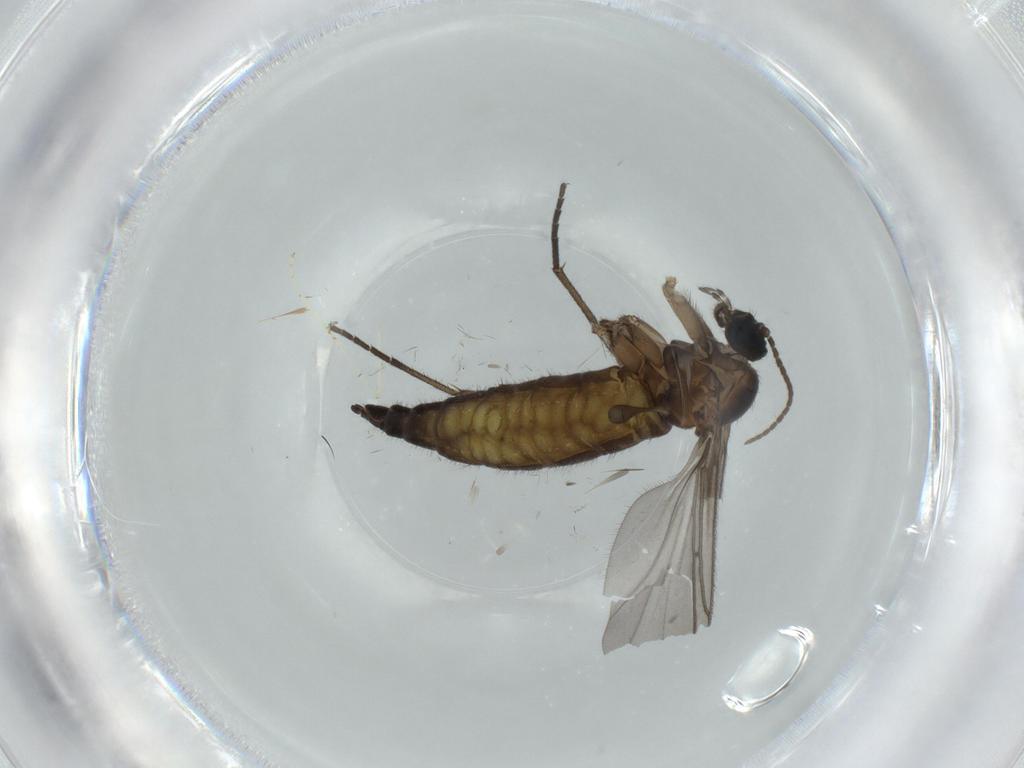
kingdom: Animalia
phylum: Arthropoda
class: Insecta
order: Diptera
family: Sciaridae
